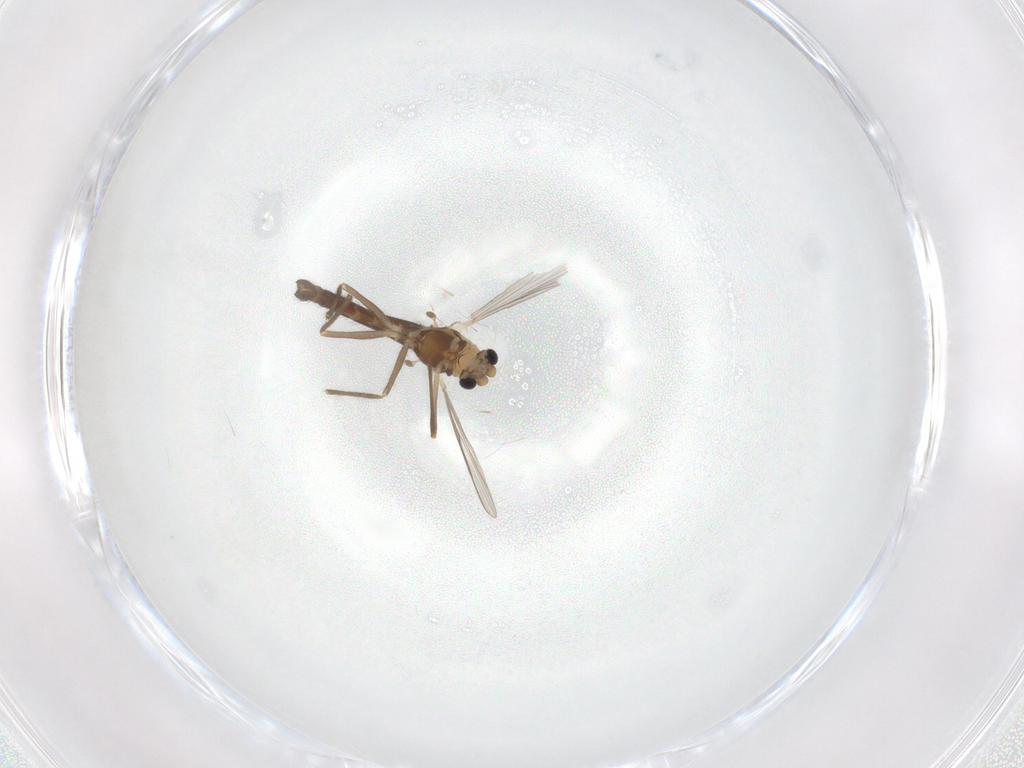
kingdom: Animalia
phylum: Arthropoda
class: Insecta
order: Diptera
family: Chironomidae
